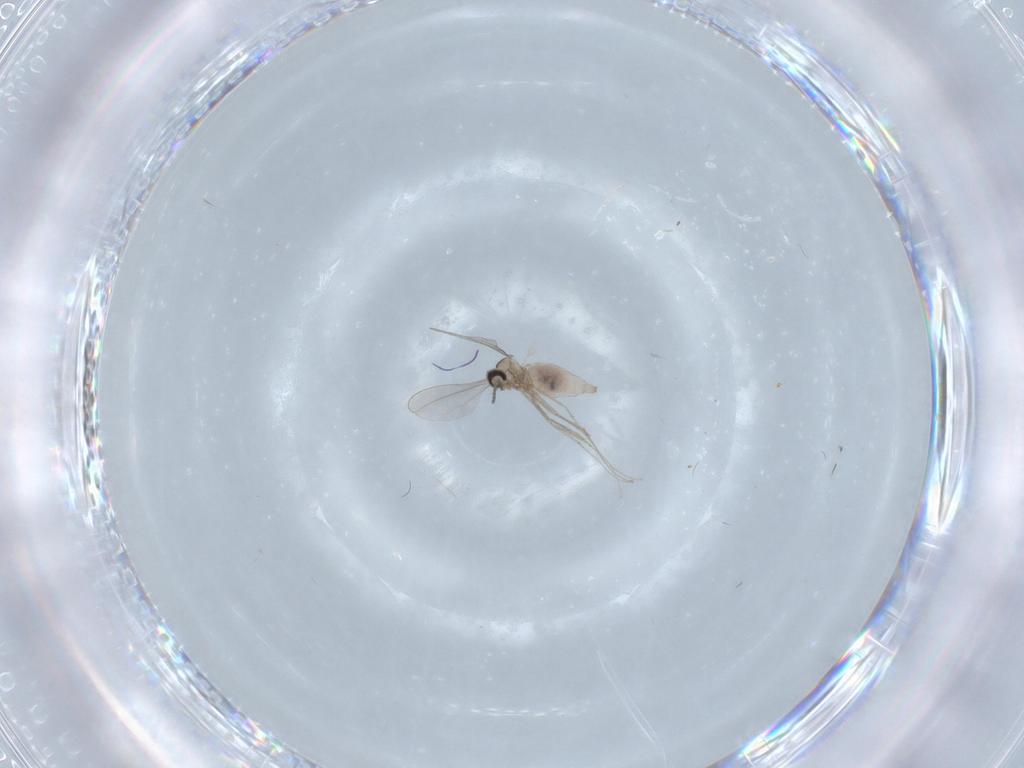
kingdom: Animalia
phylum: Arthropoda
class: Insecta
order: Diptera
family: Cecidomyiidae
